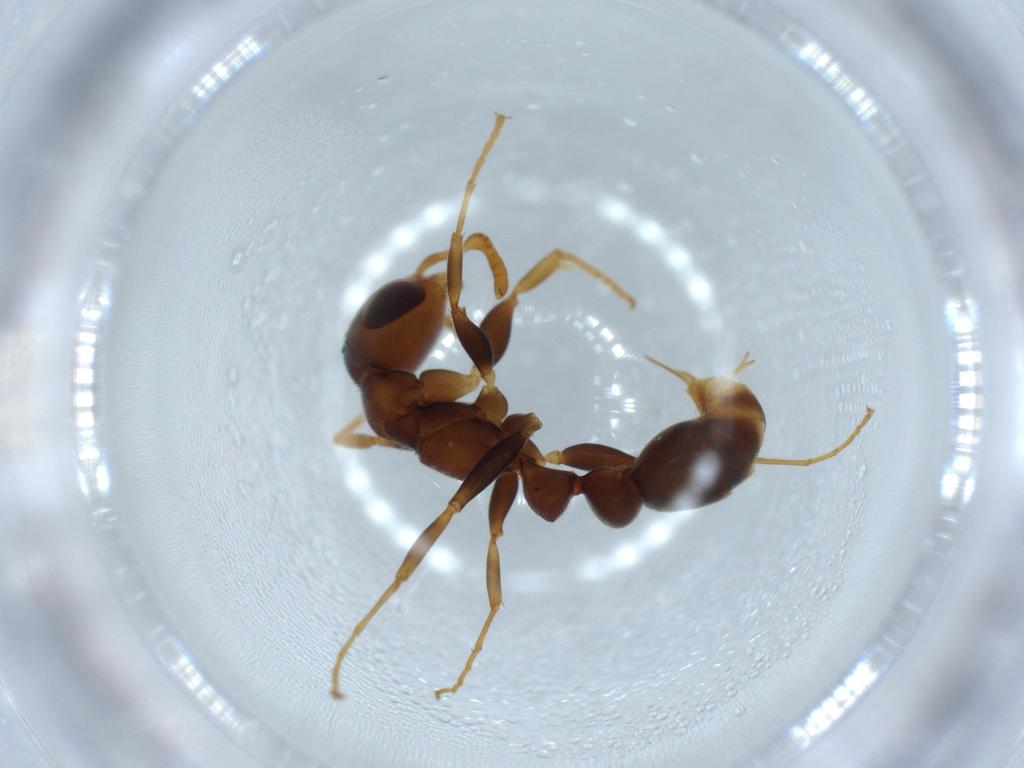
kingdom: Animalia
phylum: Arthropoda
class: Insecta
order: Hymenoptera
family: Formicidae
